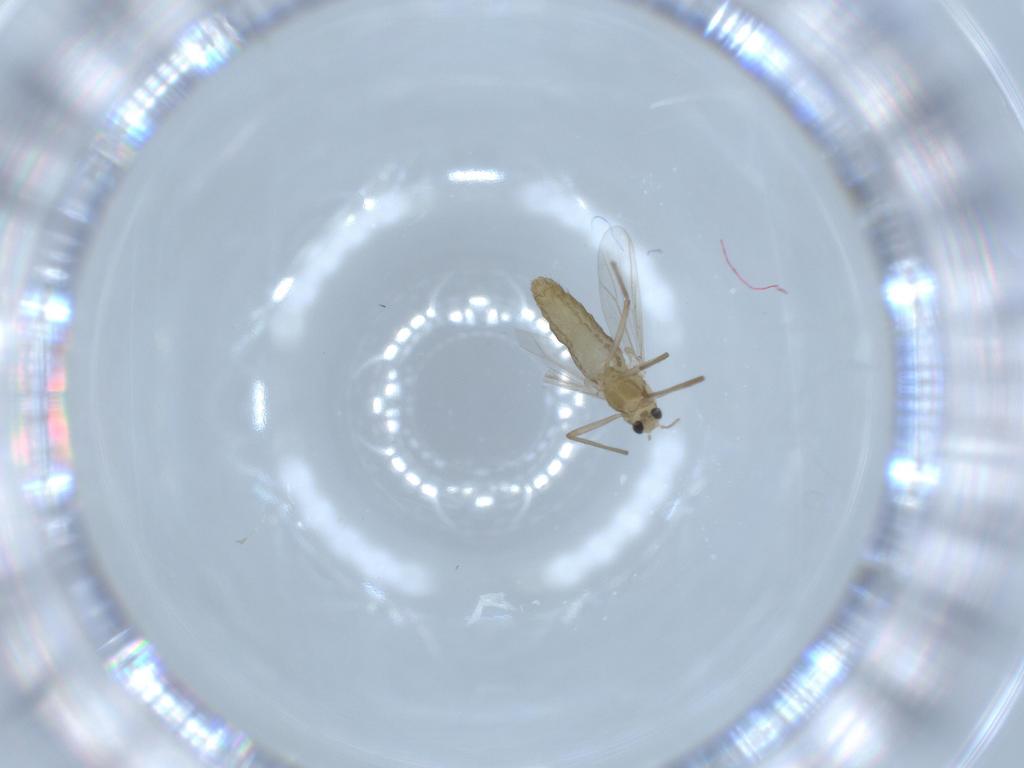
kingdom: Animalia
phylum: Arthropoda
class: Insecta
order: Diptera
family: Chironomidae
